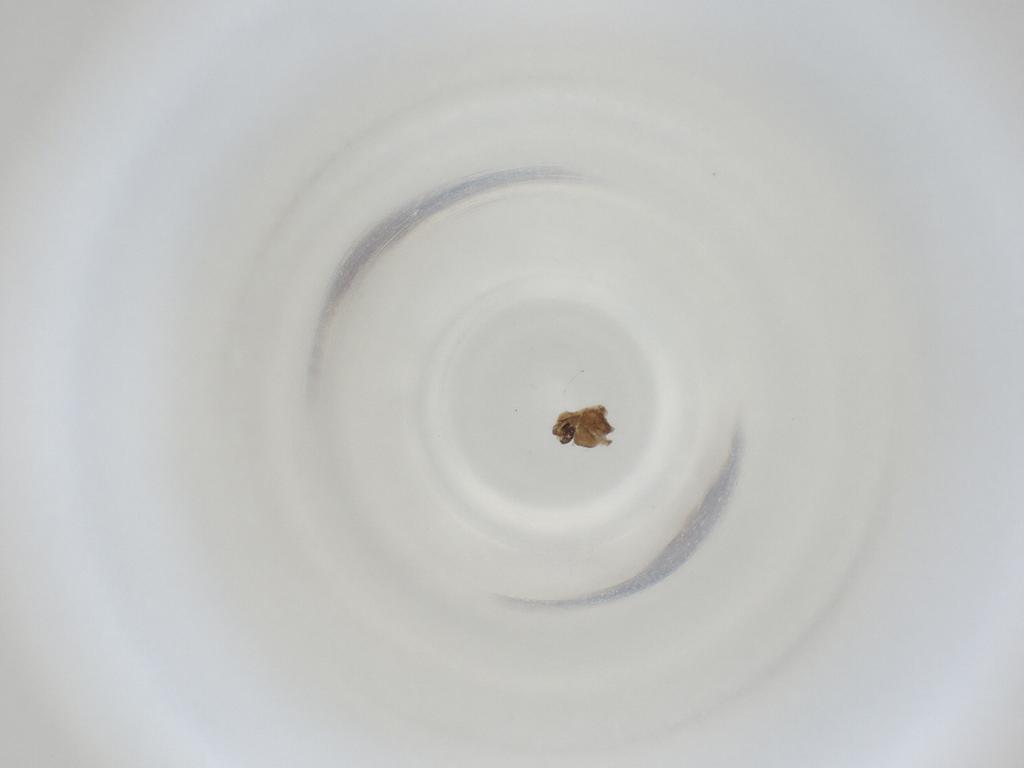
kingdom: Animalia
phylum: Arthropoda
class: Insecta
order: Diptera
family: Cecidomyiidae
